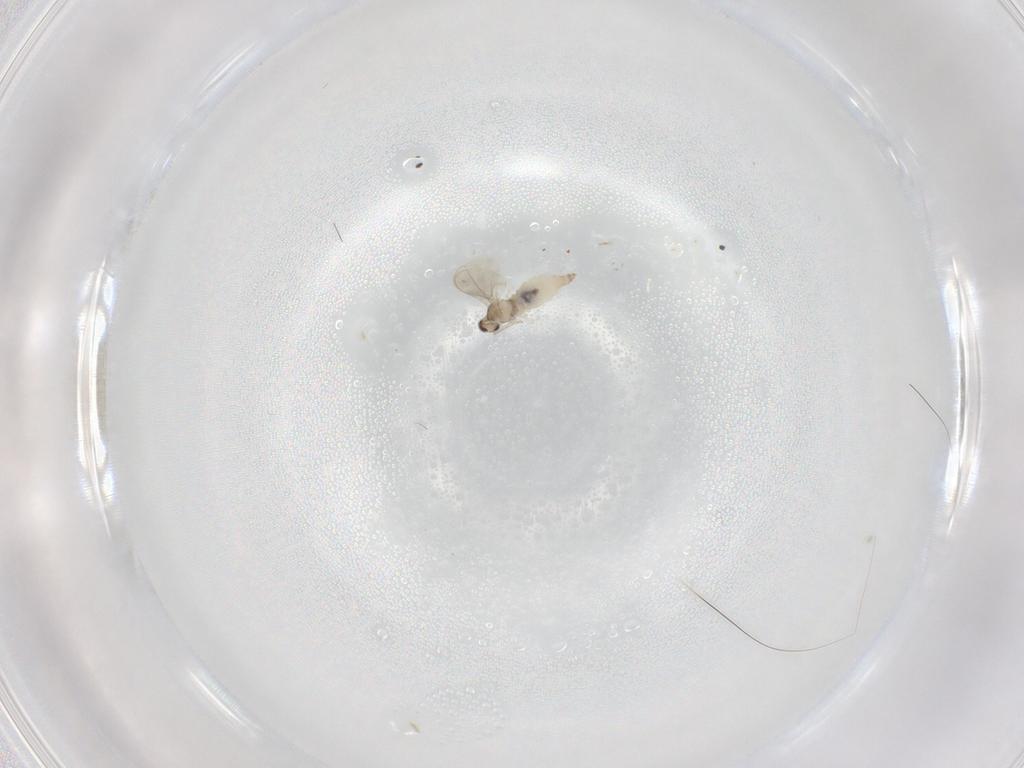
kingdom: Animalia
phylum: Arthropoda
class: Insecta
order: Diptera
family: Cecidomyiidae
